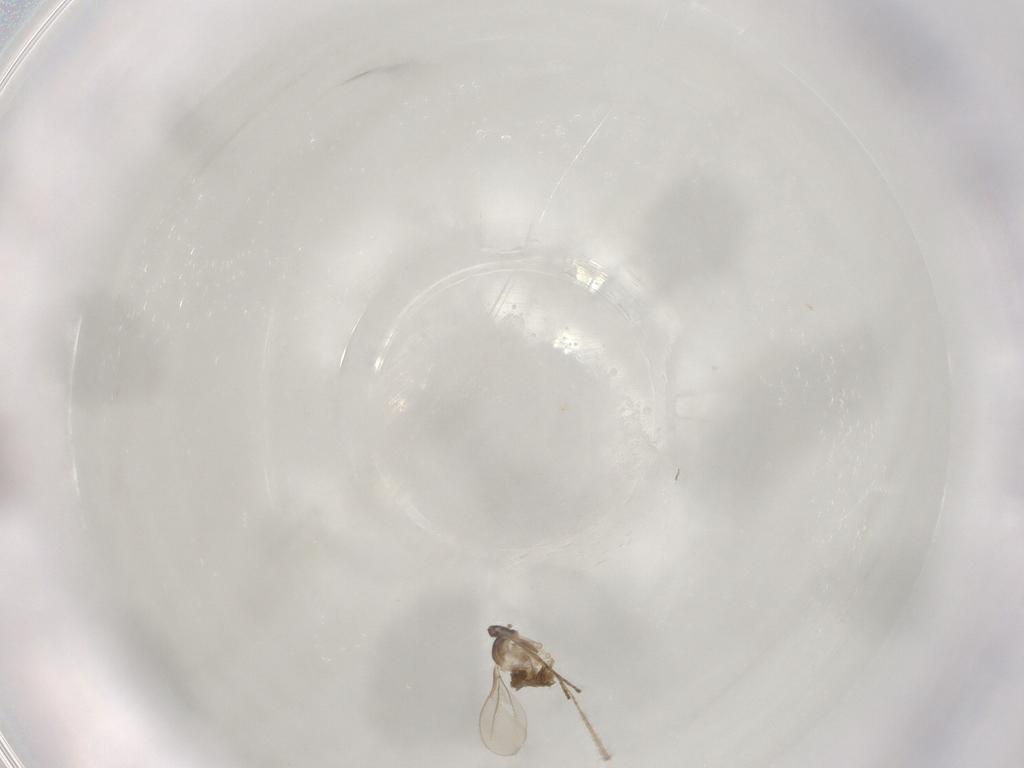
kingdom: Animalia
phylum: Arthropoda
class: Insecta
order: Diptera
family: Cecidomyiidae
